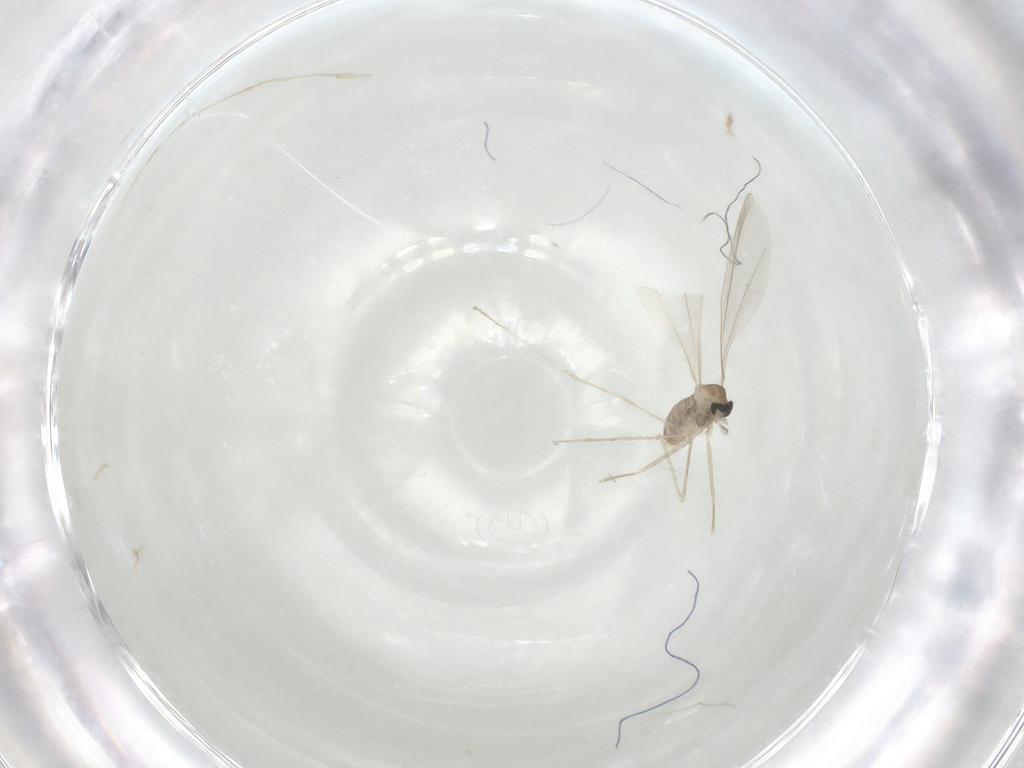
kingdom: Animalia
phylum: Arthropoda
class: Insecta
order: Diptera
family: Cecidomyiidae
